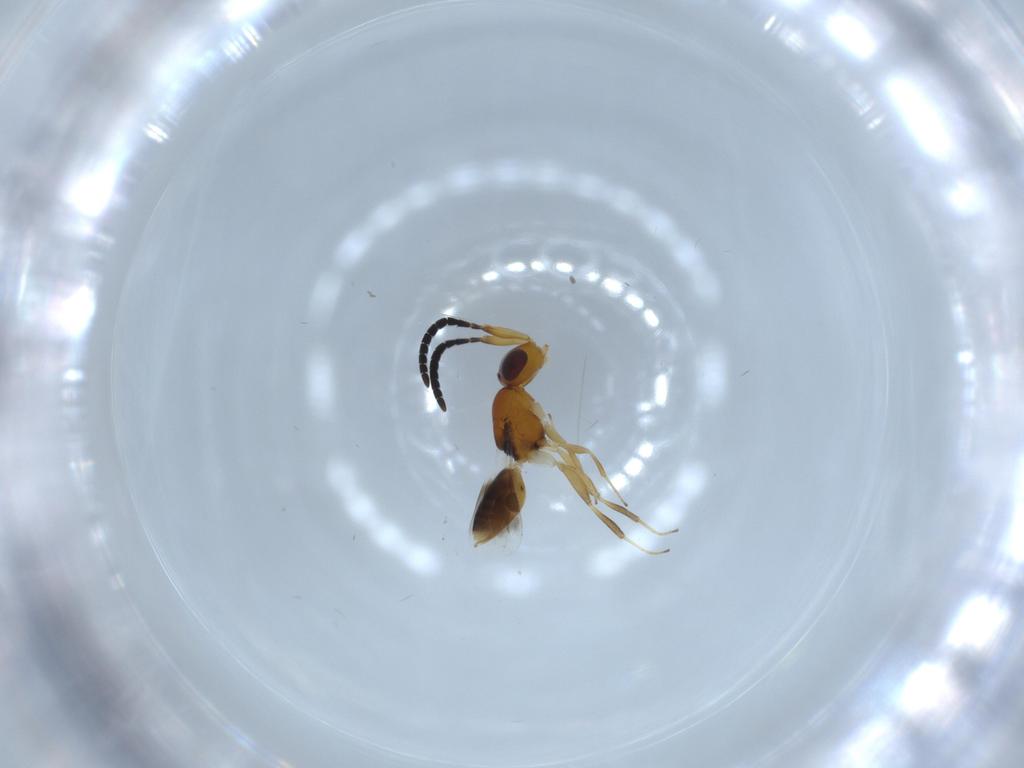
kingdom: Animalia
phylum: Arthropoda
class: Insecta
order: Hymenoptera
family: Megaspilidae
